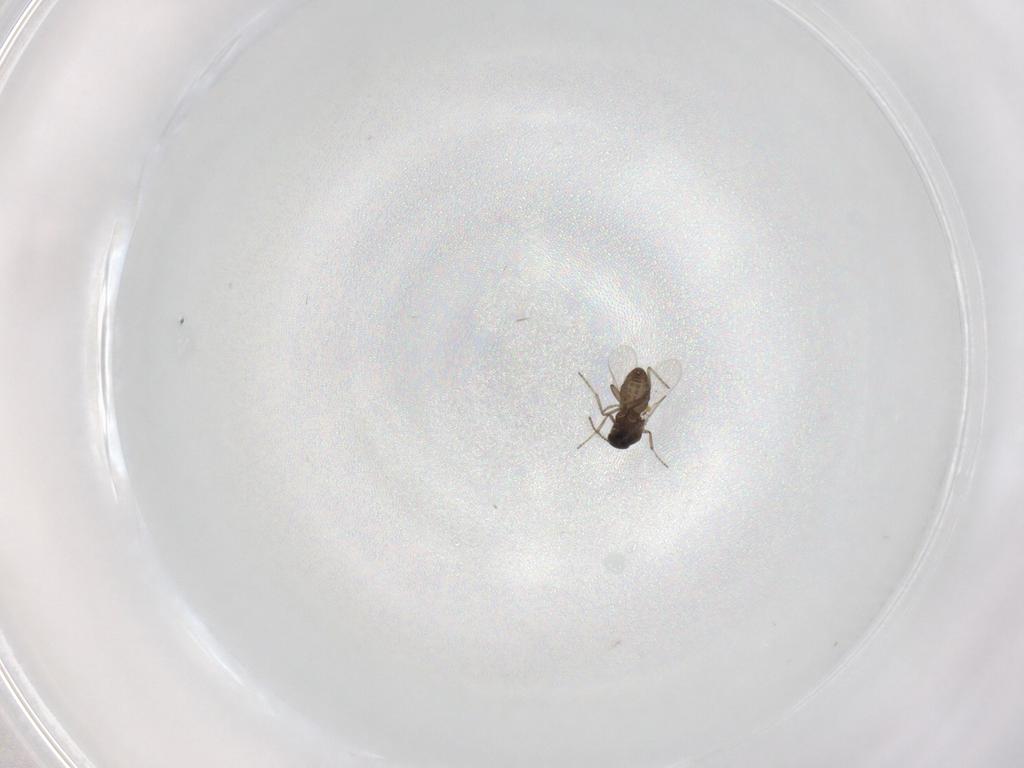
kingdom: Animalia
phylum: Arthropoda
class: Insecta
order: Diptera
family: Ceratopogonidae
